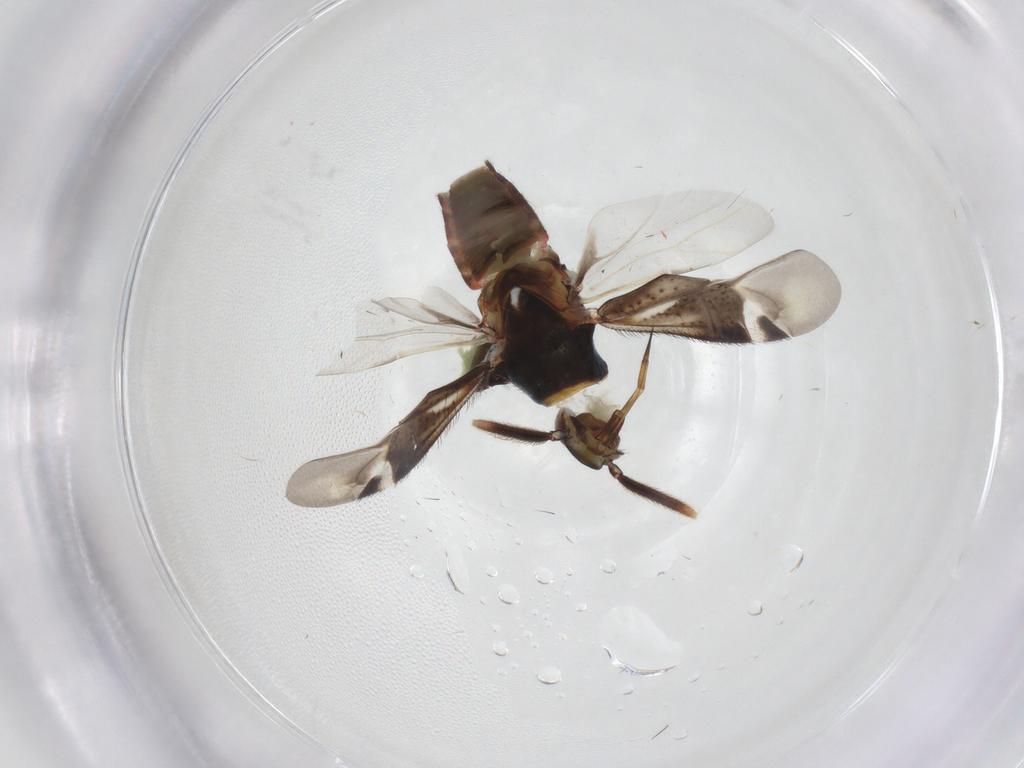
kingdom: Animalia
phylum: Arthropoda
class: Insecta
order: Hemiptera
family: Miridae
